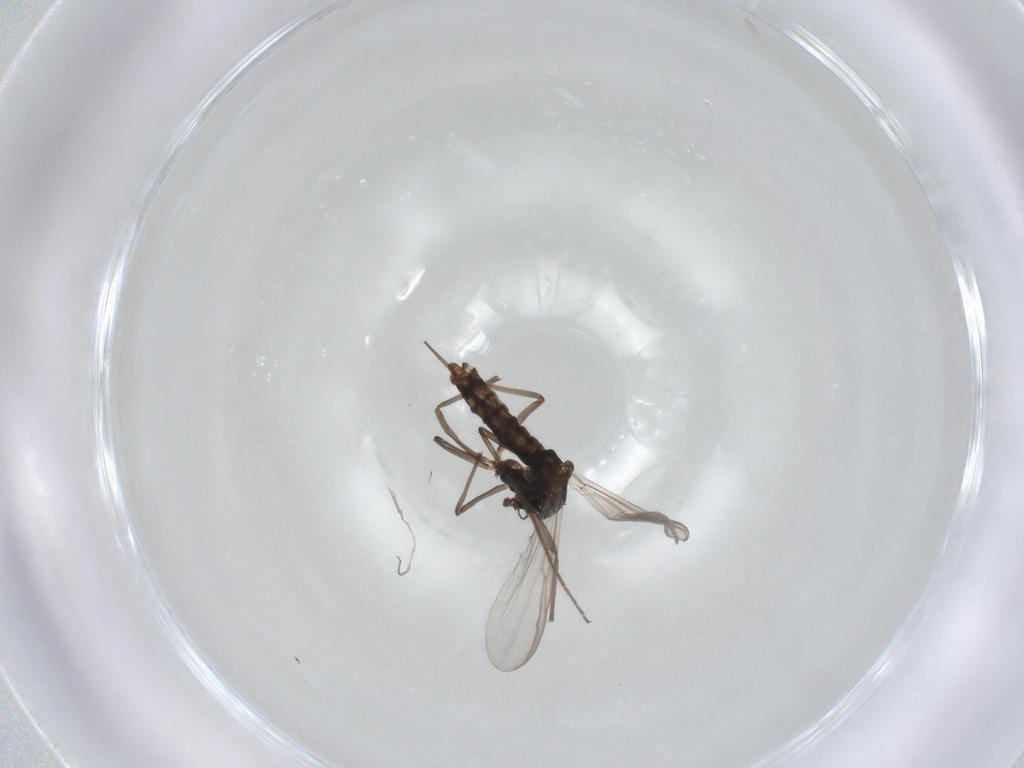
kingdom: Animalia
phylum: Arthropoda
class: Insecta
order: Diptera
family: Chironomidae
